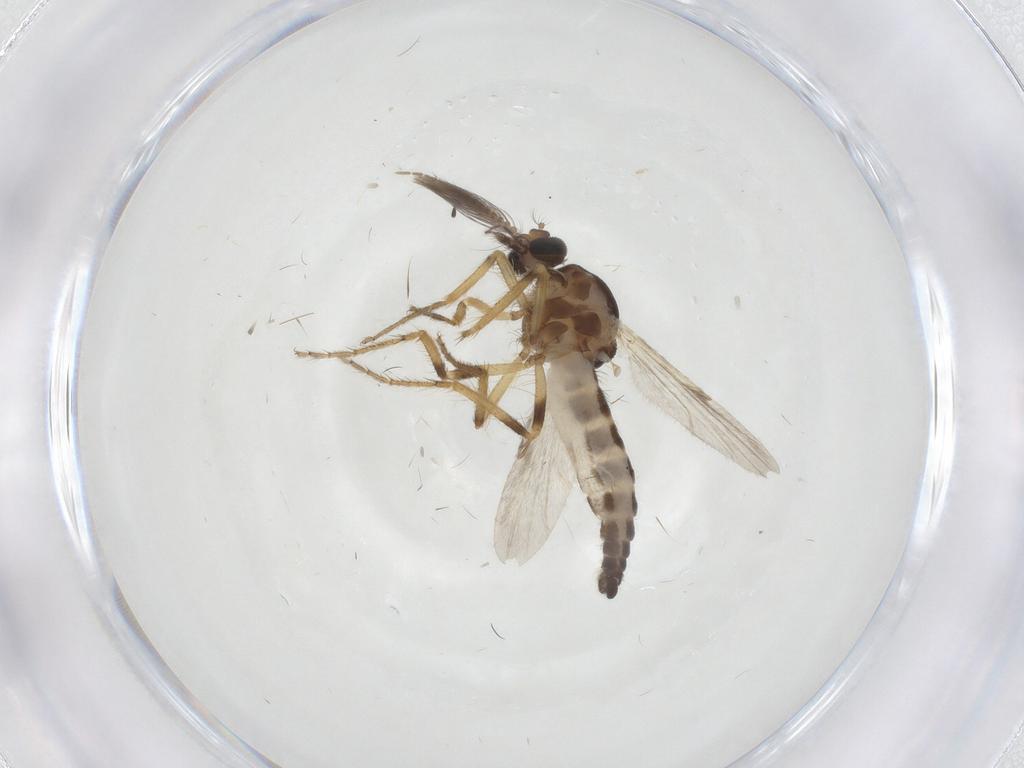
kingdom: Animalia
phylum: Arthropoda
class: Insecta
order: Diptera
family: Ceratopogonidae
